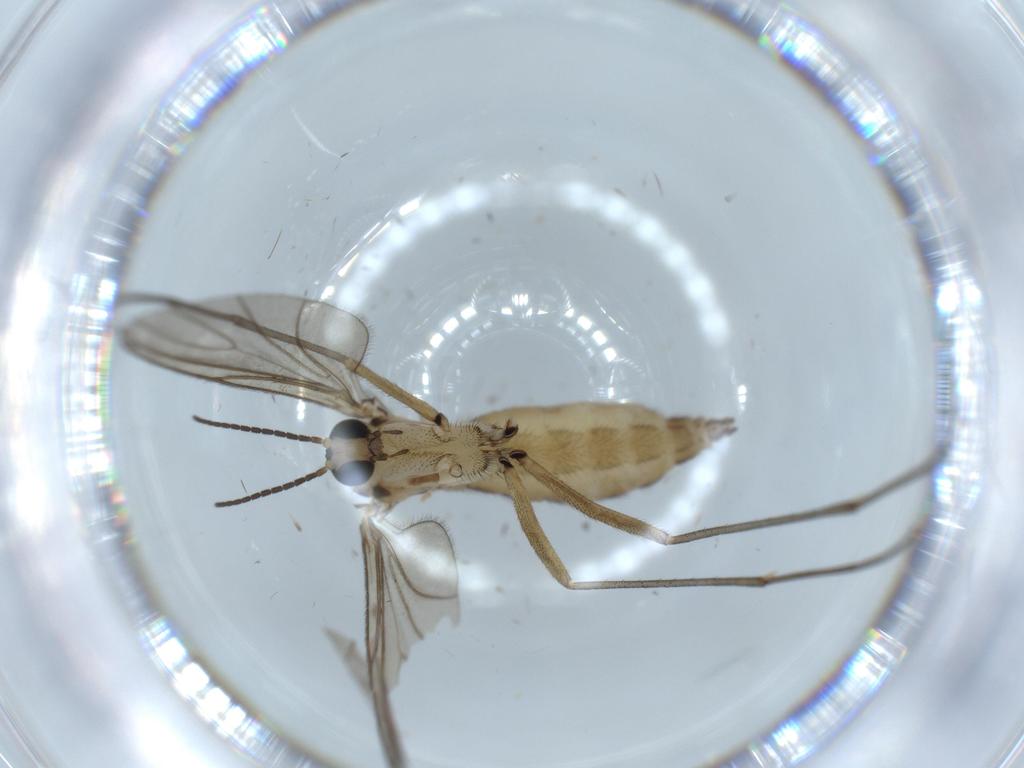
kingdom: Animalia
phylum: Arthropoda
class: Insecta
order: Diptera
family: Sciaridae
